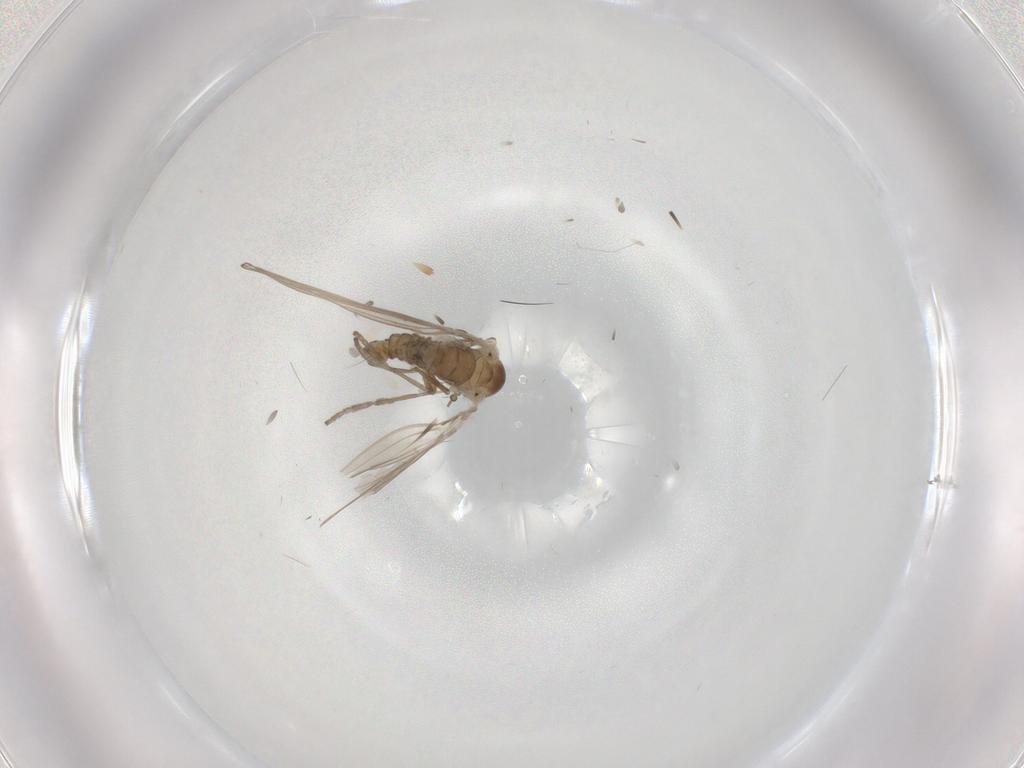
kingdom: Animalia
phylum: Arthropoda
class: Insecta
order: Diptera
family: Psychodidae
